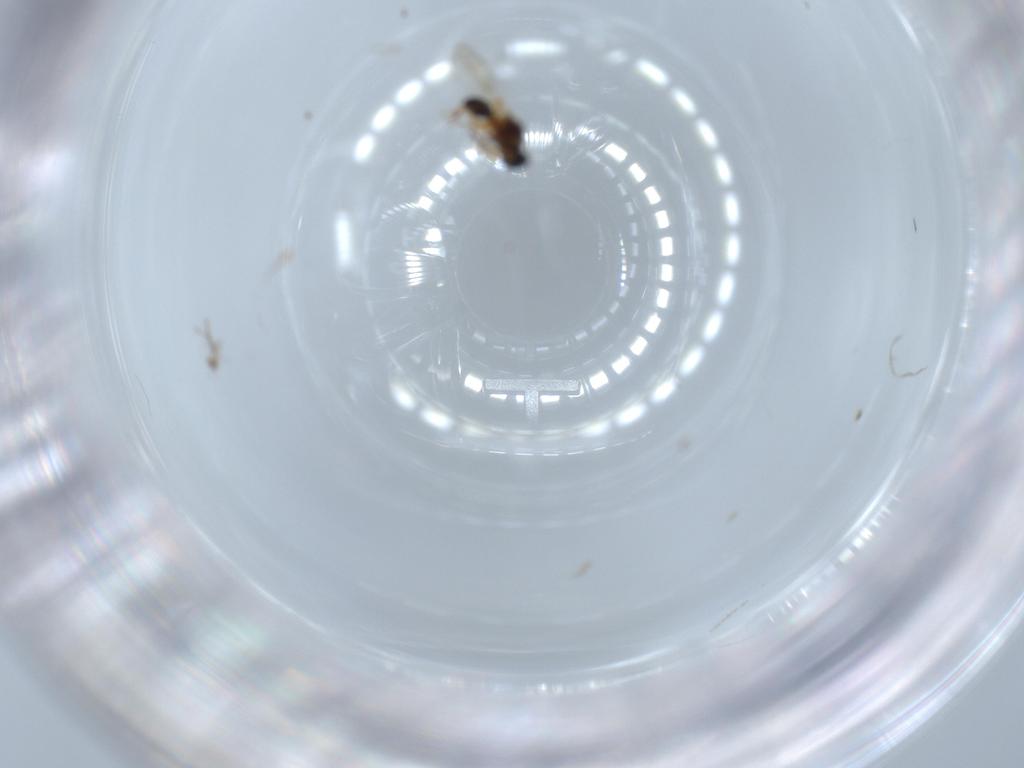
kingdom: Animalia
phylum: Arthropoda
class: Insecta
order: Hymenoptera
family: Platygastridae
